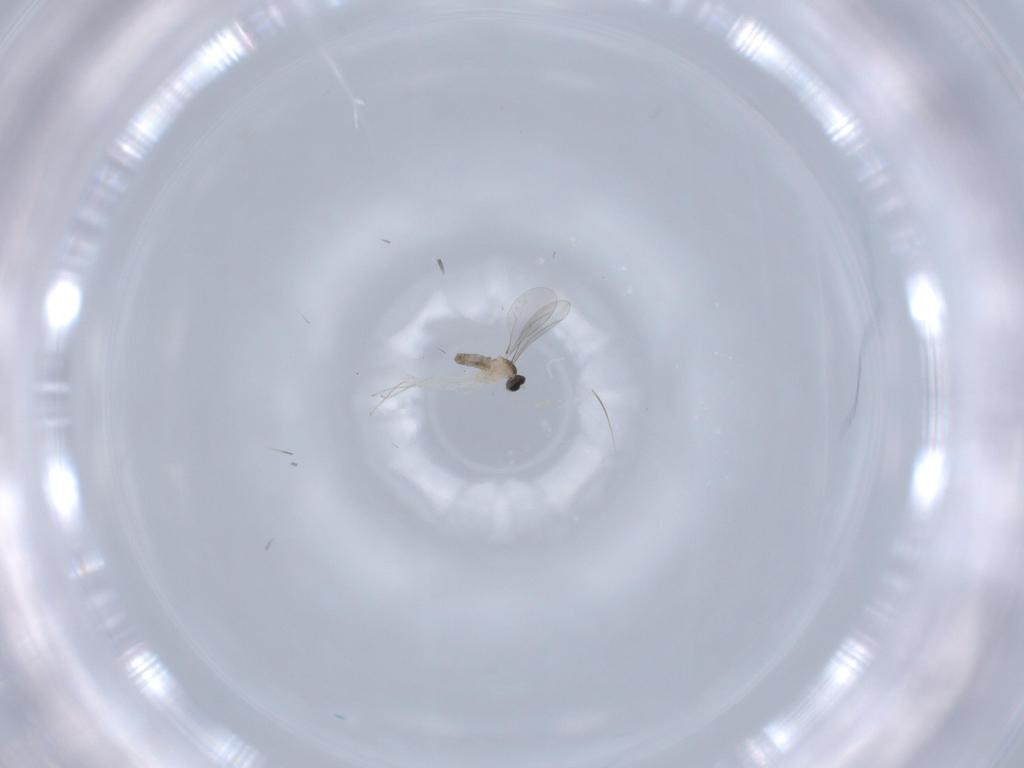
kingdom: Animalia
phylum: Arthropoda
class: Insecta
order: Diptera
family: Cecidomyiidae
